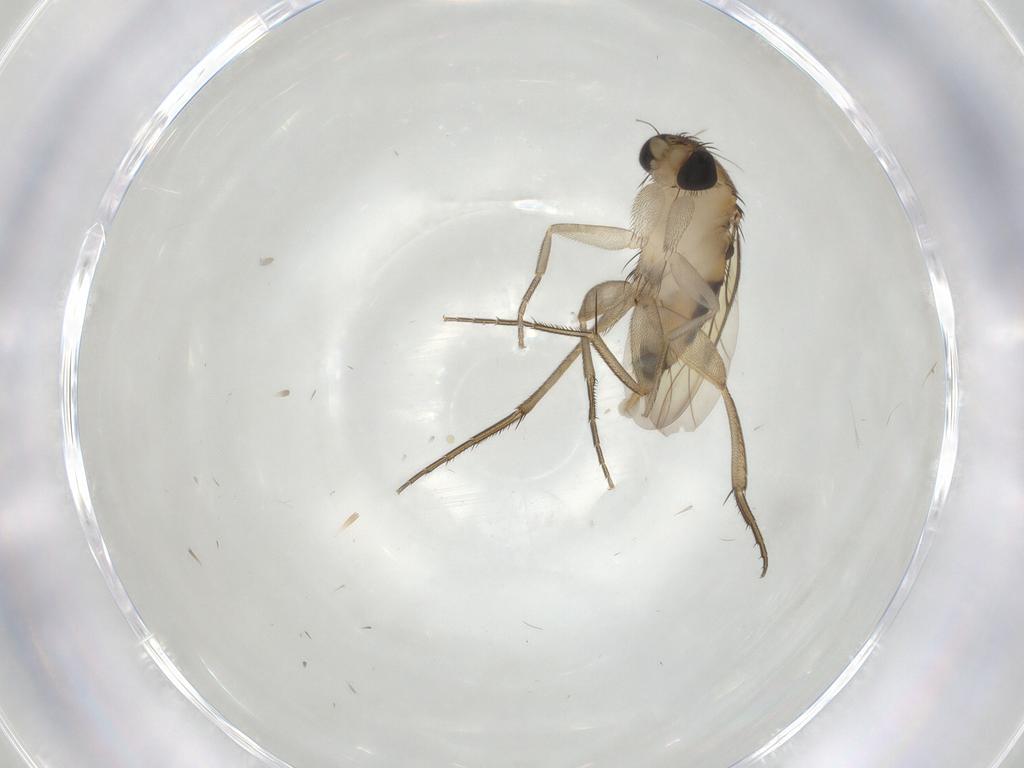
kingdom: Animalia
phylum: Arthropoda
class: Insecta
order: Diptera
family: Phoridae
